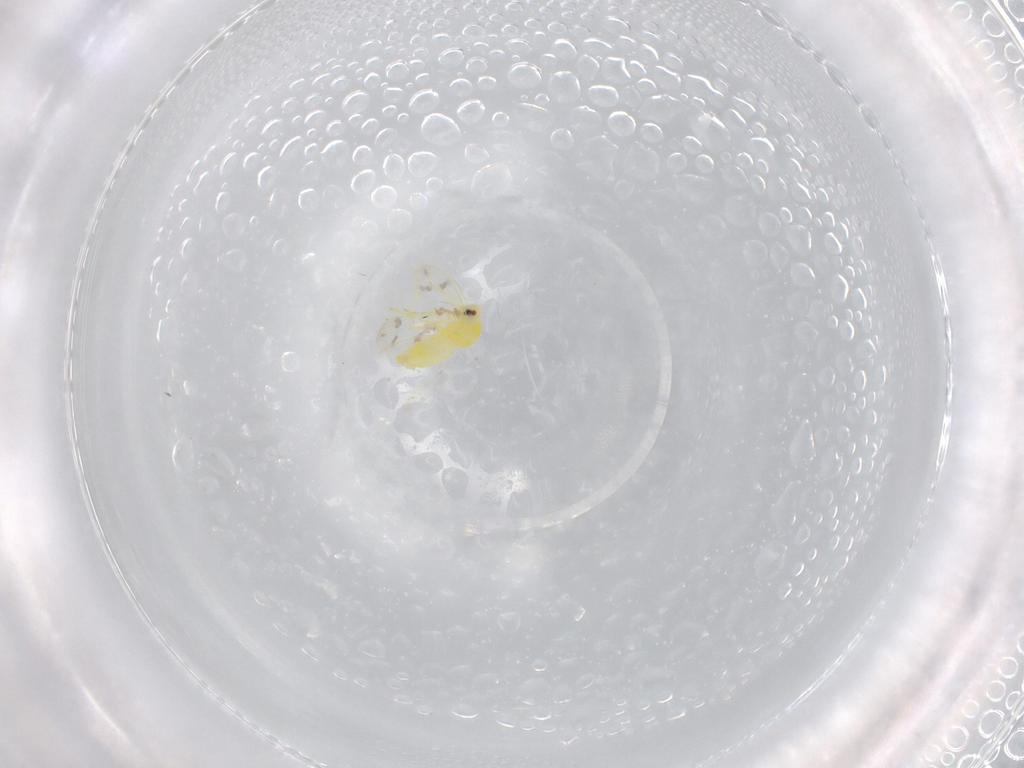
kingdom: Animalia
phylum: Arthropoda
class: Insecta
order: Hemiptera
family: Aleyrodidae
